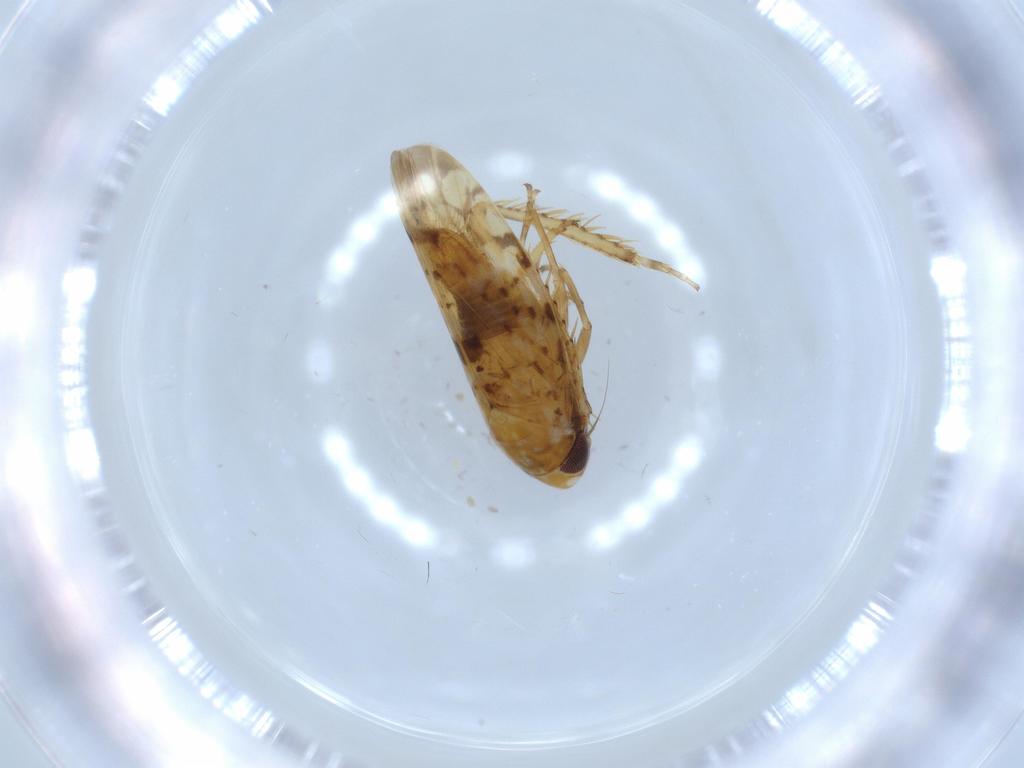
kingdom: Animalia
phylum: Arthropoda
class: Insecta
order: Hemiptera
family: Cicadellidae
